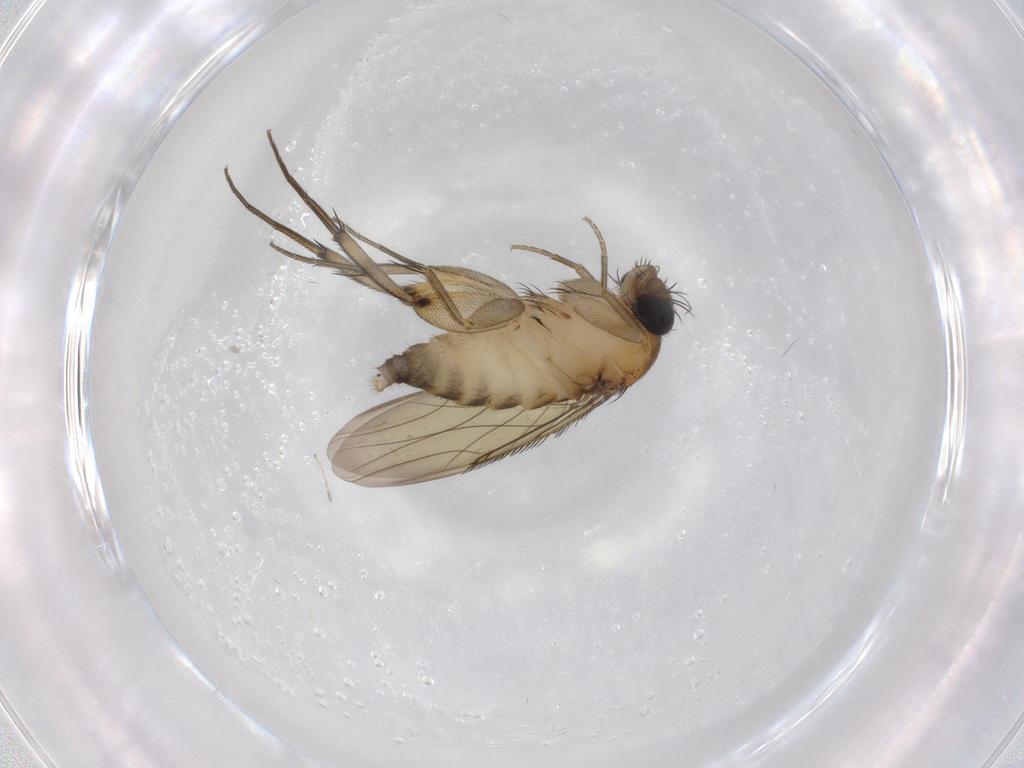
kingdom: Animalia
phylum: Arthropoda
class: Insecta
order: Diptera
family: Phoridae
